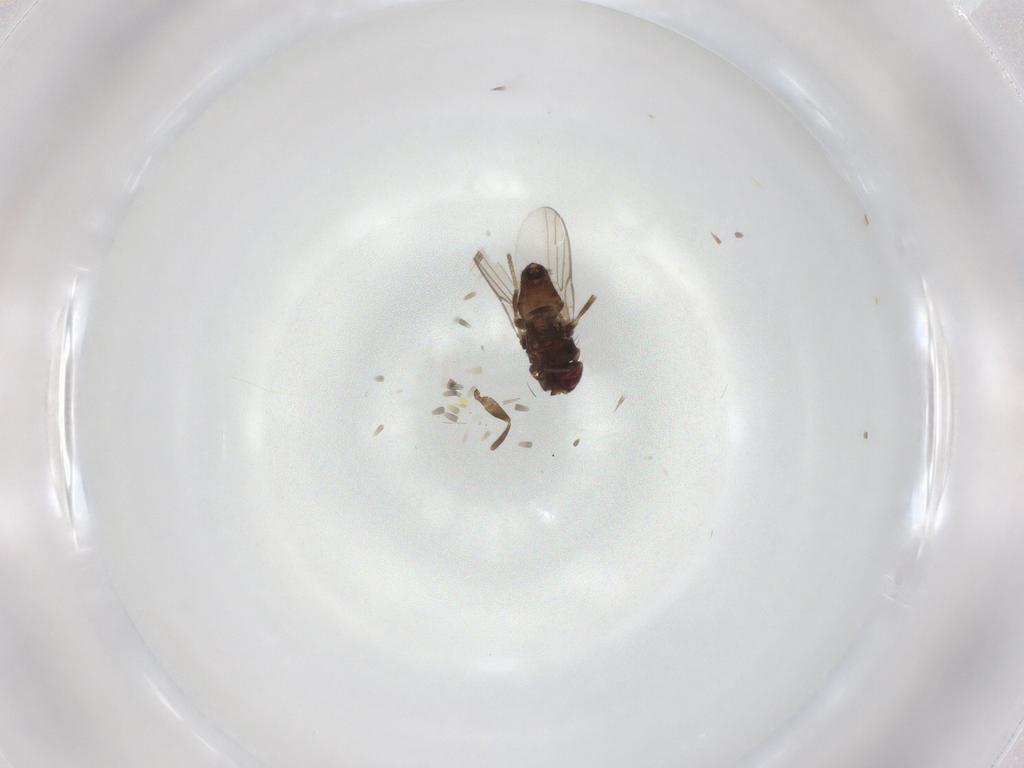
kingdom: Animalia
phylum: Arthropoda
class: Insecta
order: Diptera
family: Chloropidae
